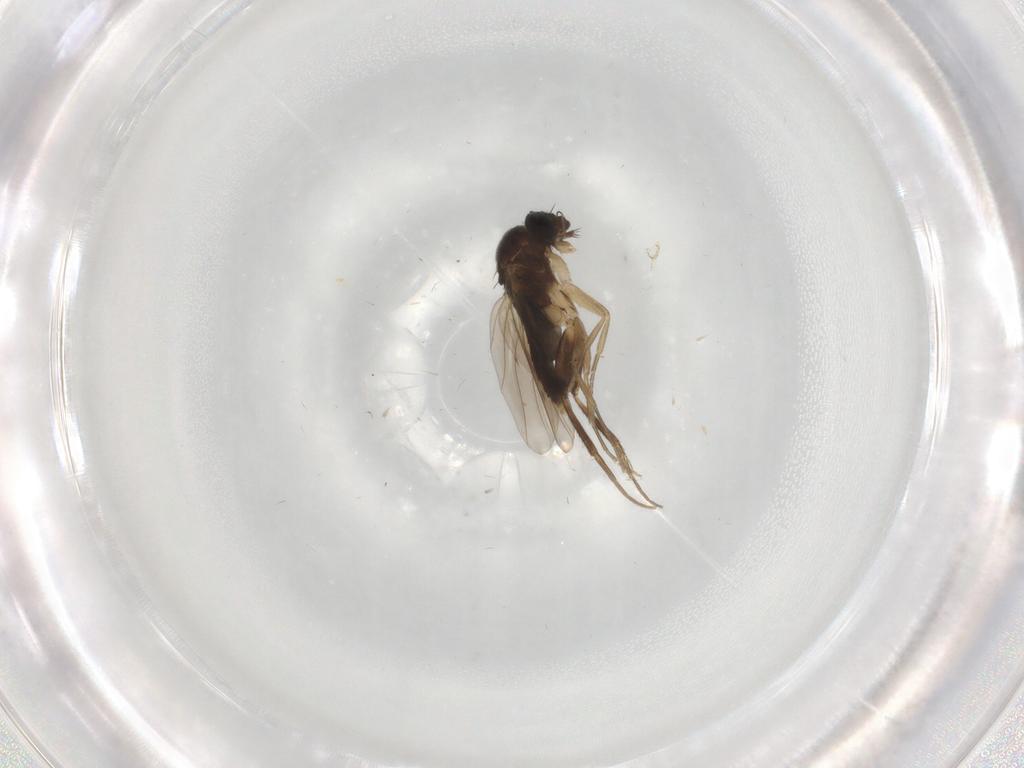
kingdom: Animalia
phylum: Arthropoda
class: Insecta
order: Diptera
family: Phoridae
